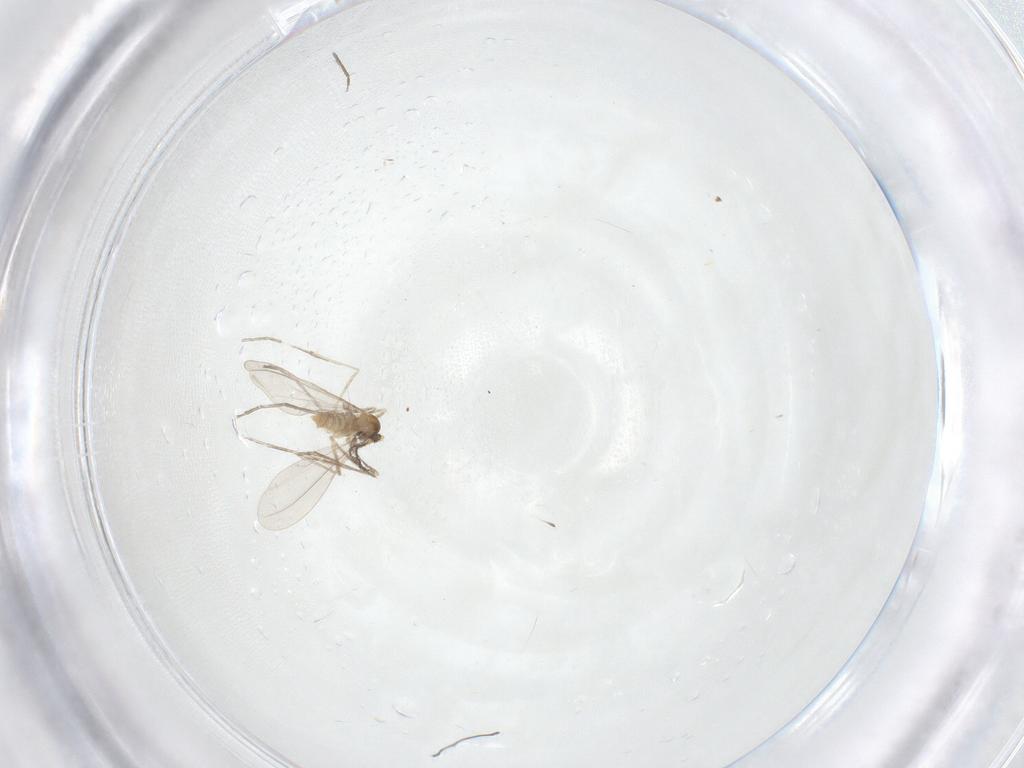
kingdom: Animalia
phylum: Arthropoda
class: Insecta
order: Diptera
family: Cecidomyiidae
